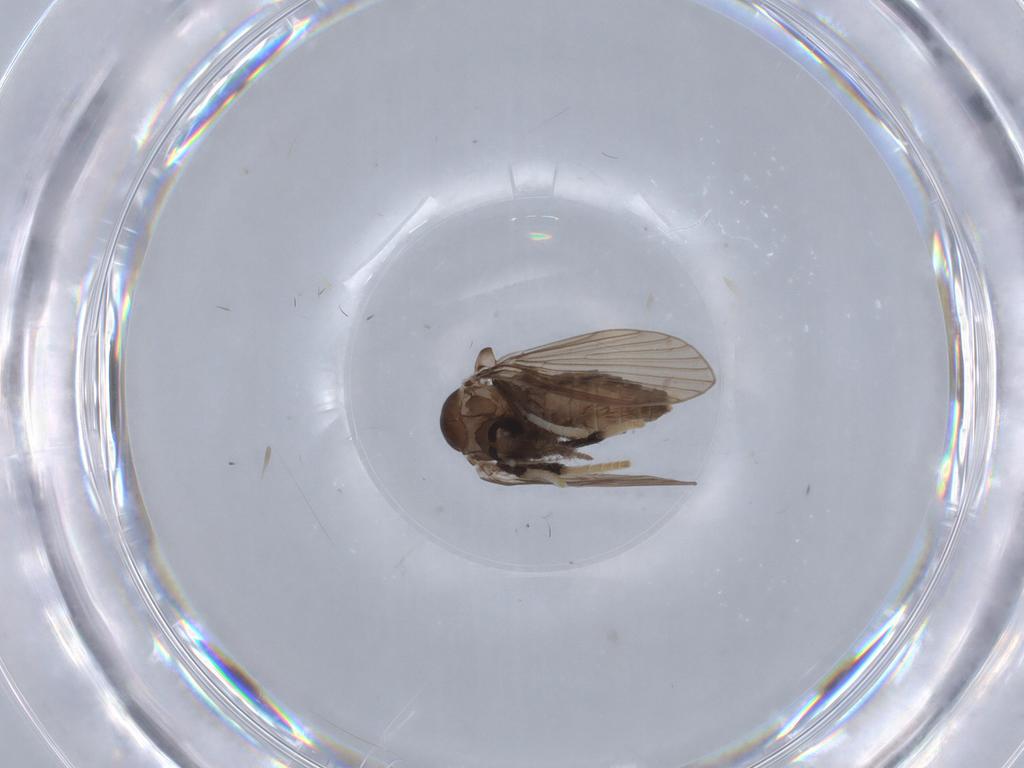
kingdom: Animalia
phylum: Arthropoda
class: Insecta
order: Diptera
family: Psychodidae
